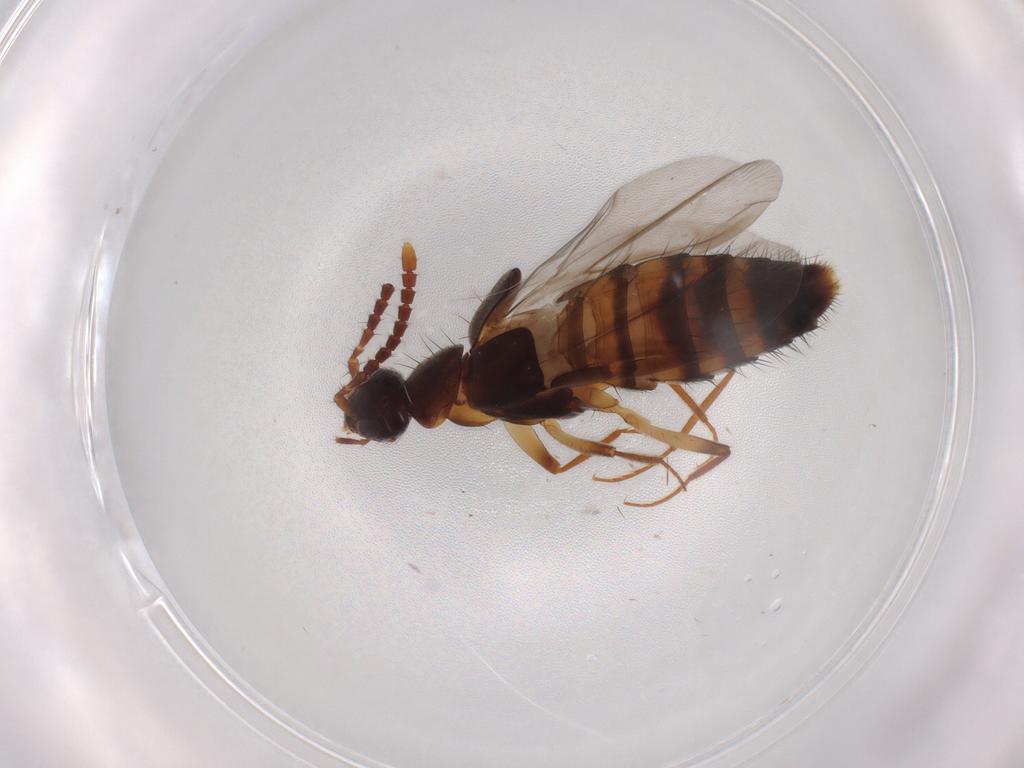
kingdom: Animalia
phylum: Arthropoda
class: Insecta
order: Coleoptera
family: Staphylinidae
